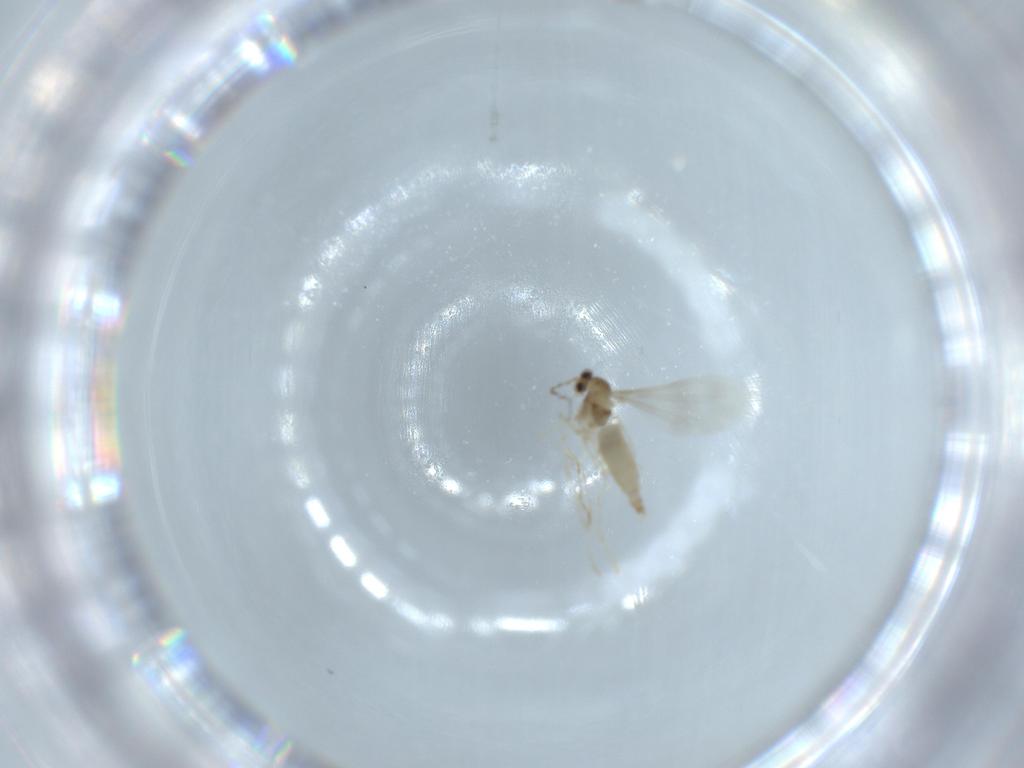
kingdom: Animalia
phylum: Arthropoda
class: Insecta
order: Diptera
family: Cecidomyiidae
